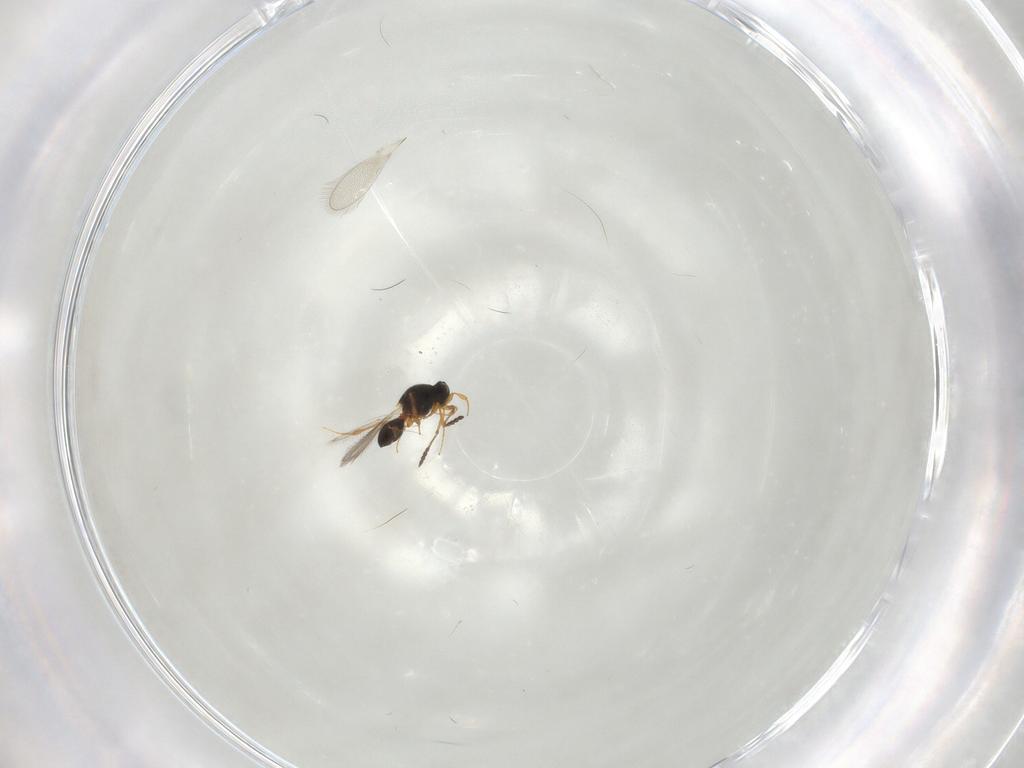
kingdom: Animalia
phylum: Arthropoda
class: Insecta
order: Hymenoptera
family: Platygastridae
